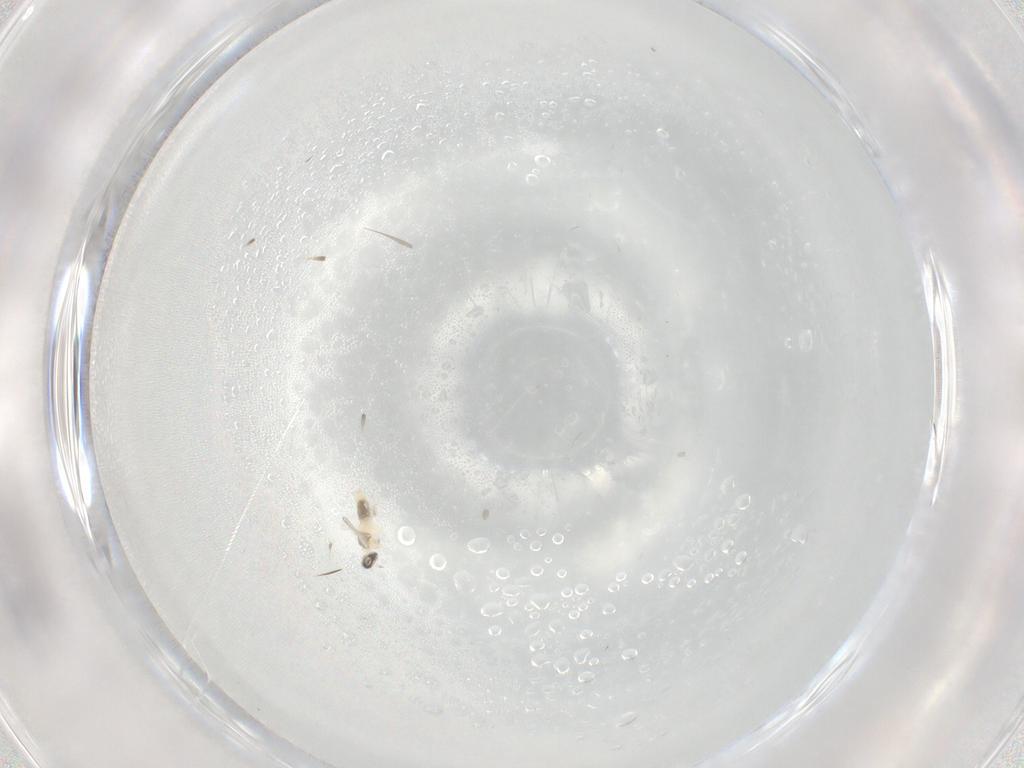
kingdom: Animalia
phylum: Arthropoda
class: Insecta
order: Diptera
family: Cecidomyiidae
